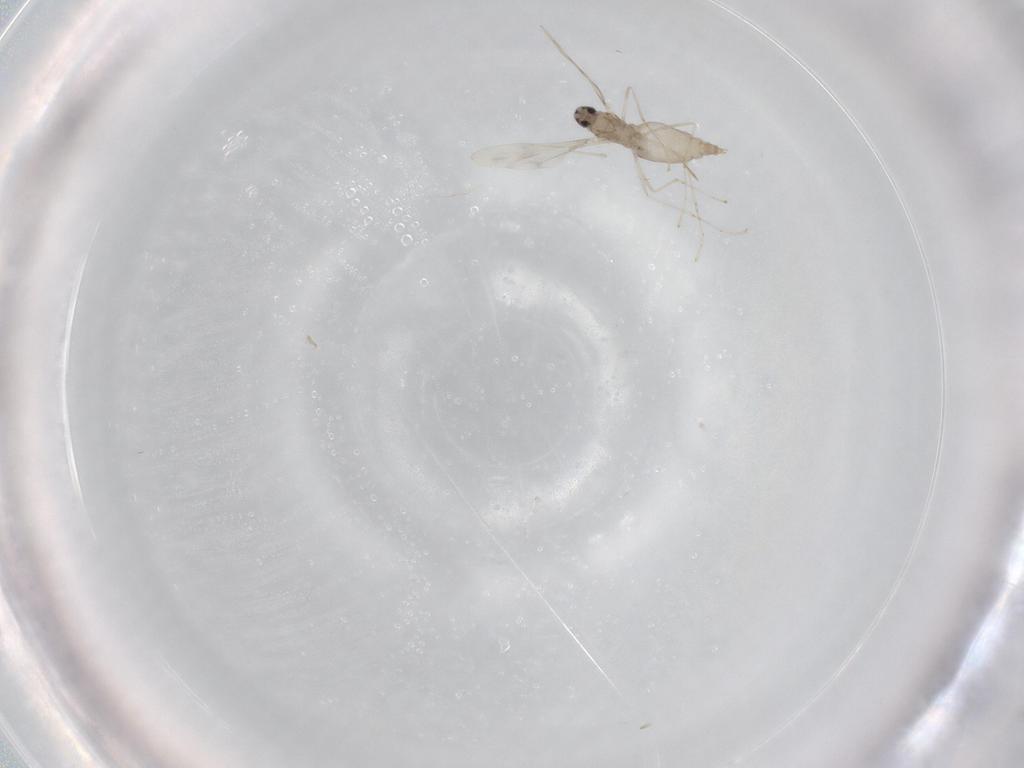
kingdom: Animalia
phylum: Arthropoda
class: Insecta
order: Diptera
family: Cecidomyiidae
